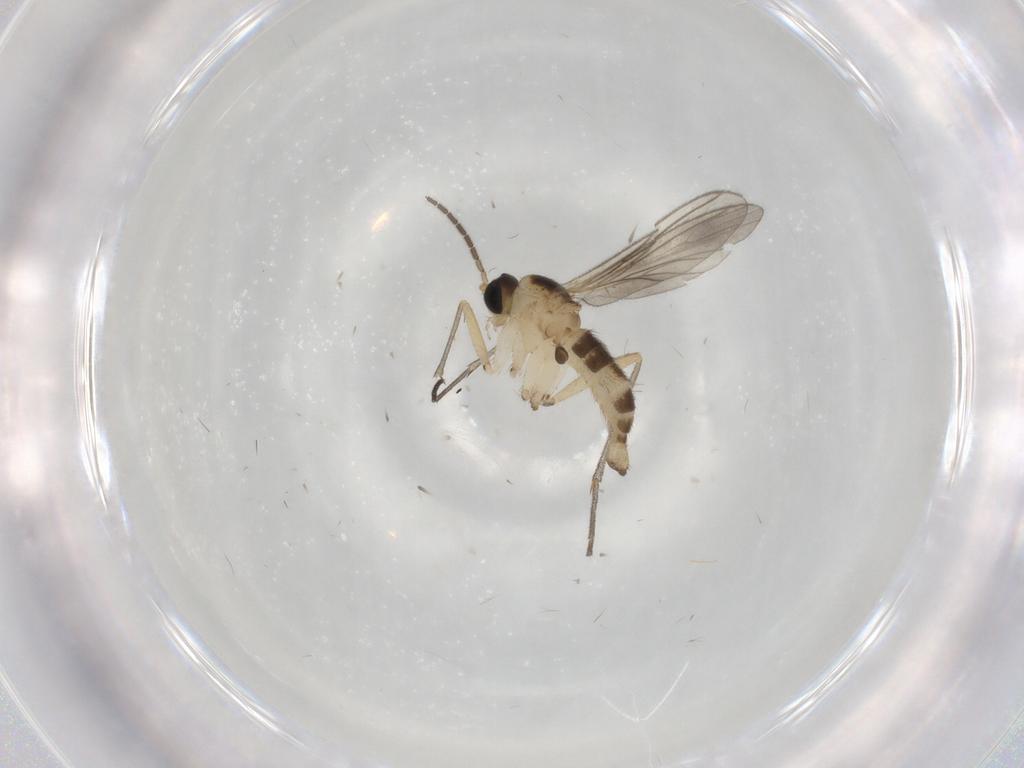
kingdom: Animalia
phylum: Arthropoda
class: Insecta
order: Diptera
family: Sciaridae
